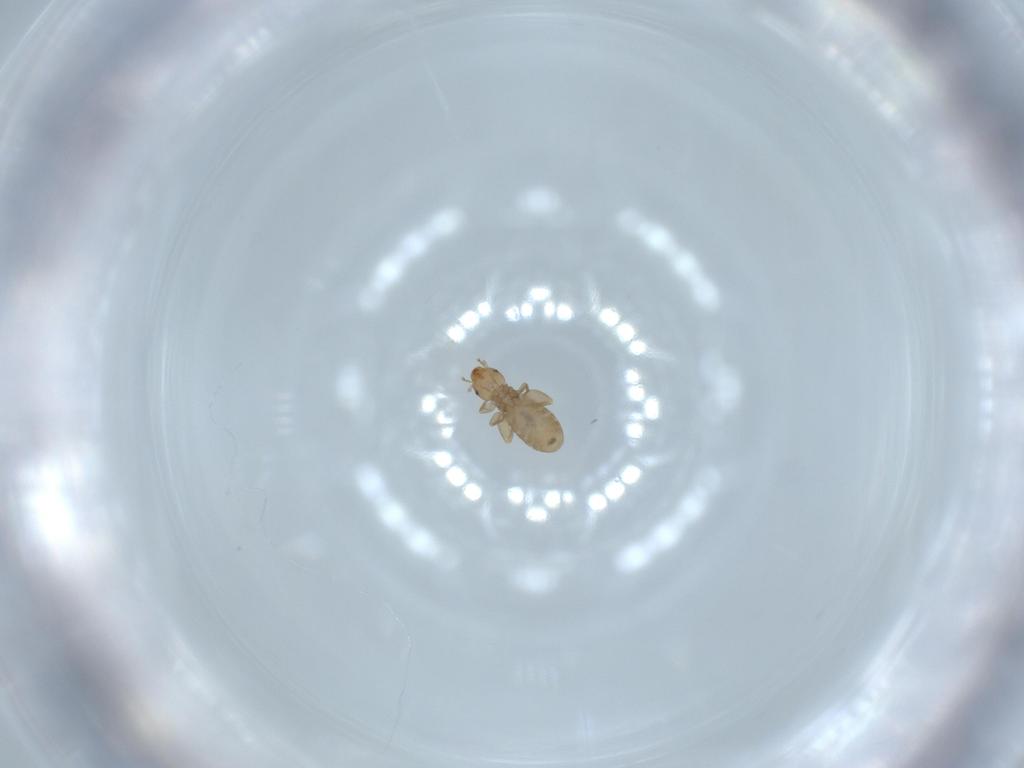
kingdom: Animalia
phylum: Arthropoda
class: Insecta
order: Psocodea
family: Liposcelididae
